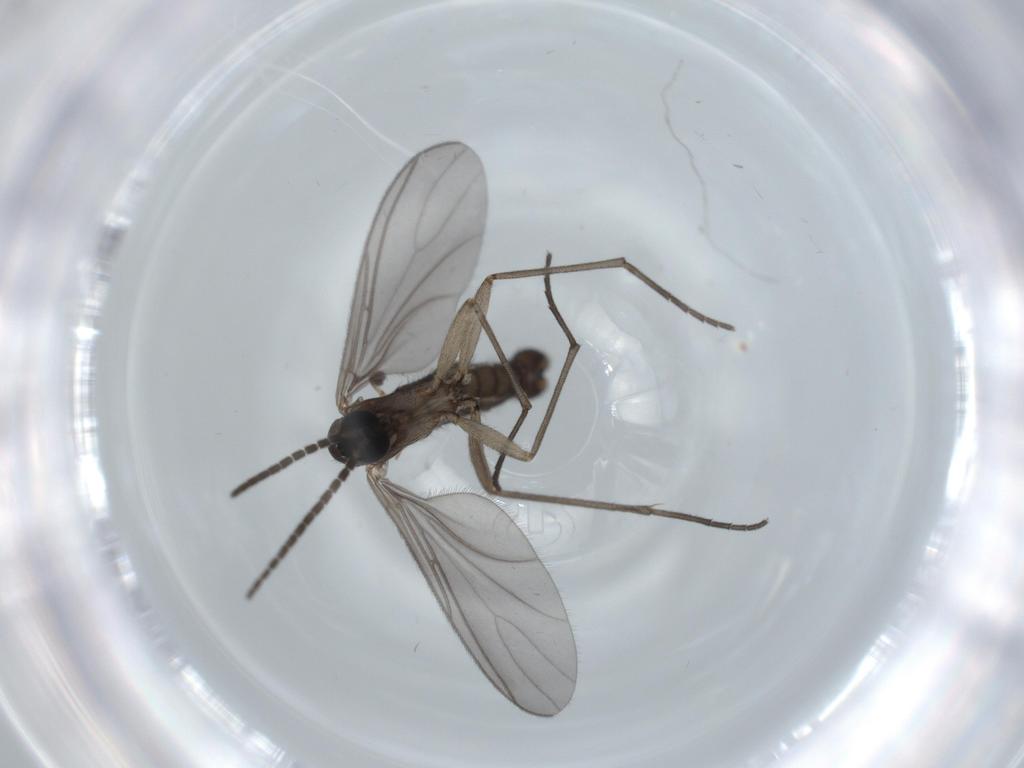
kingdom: Animalia
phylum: Arthropoda
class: Insecta
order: Diptera
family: Sciaridae
